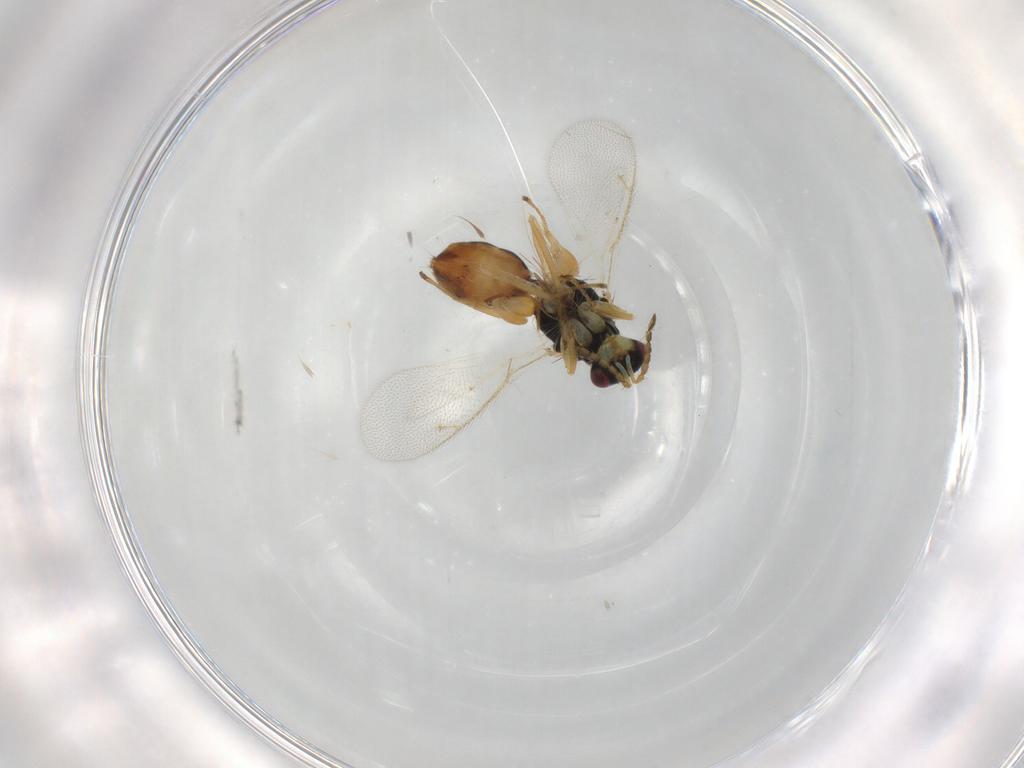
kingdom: Animalia
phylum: Arthropoda
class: Insecta
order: Hymenoptera
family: Eulophidae
